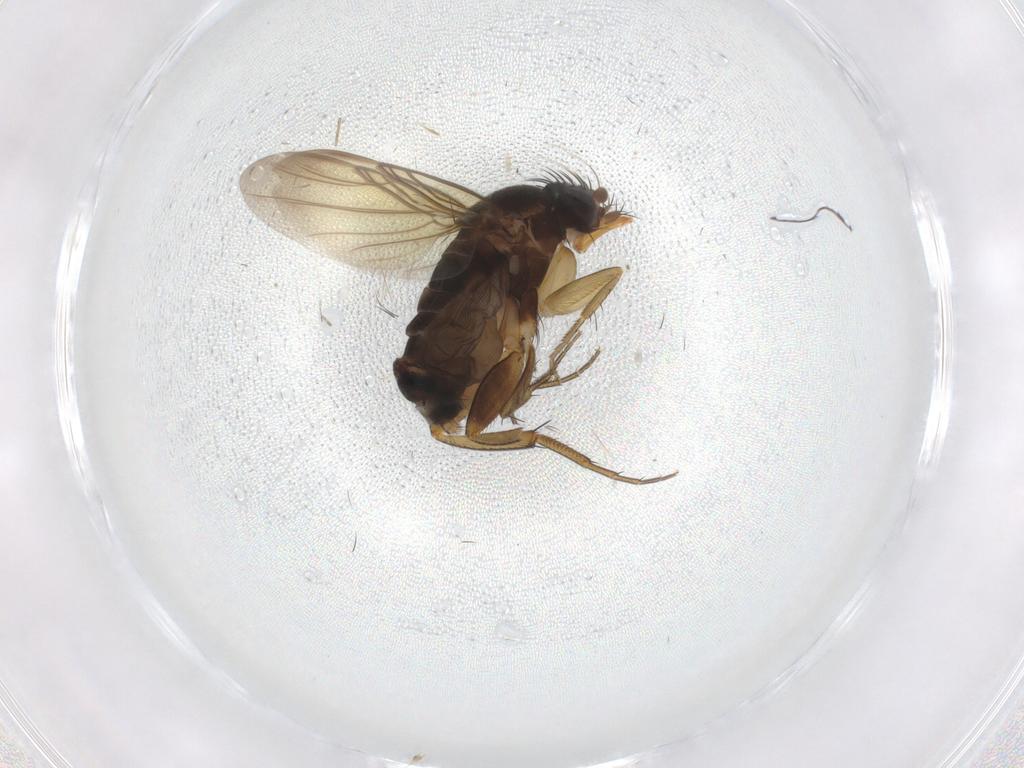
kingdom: Animalia
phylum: Arthropoda
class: Insecta
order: Diptera
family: Cecidomyiidae
